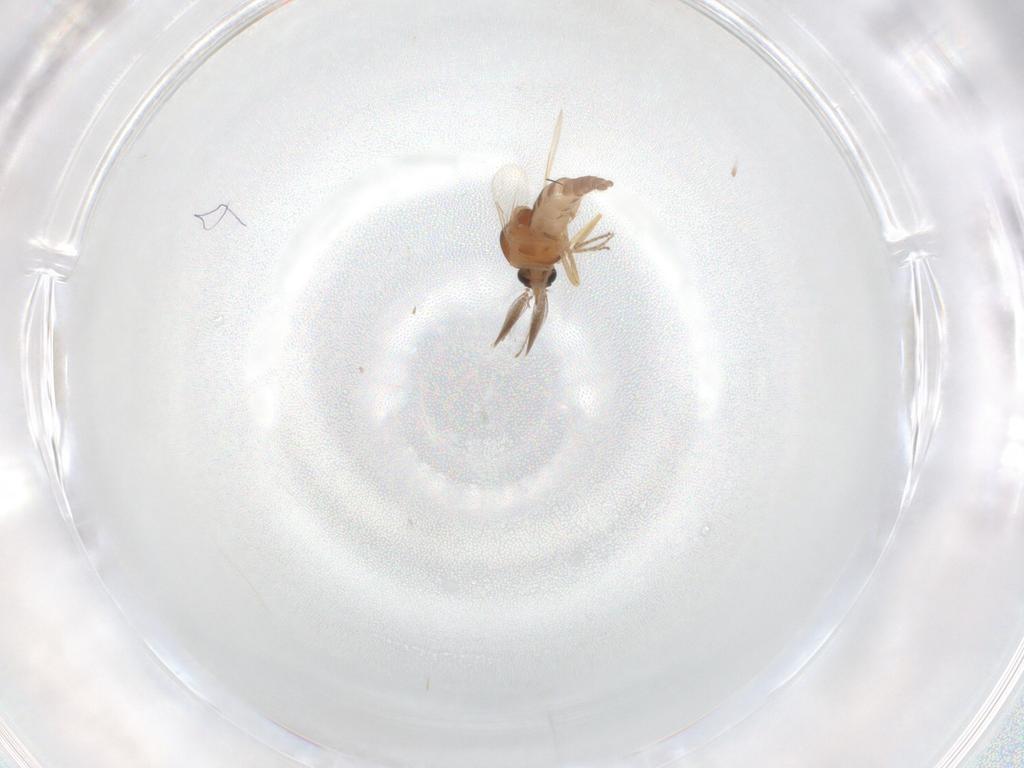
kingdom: Animalia
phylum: Arthropoda
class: Insecta
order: Diptera
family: Ceratopogonidae
